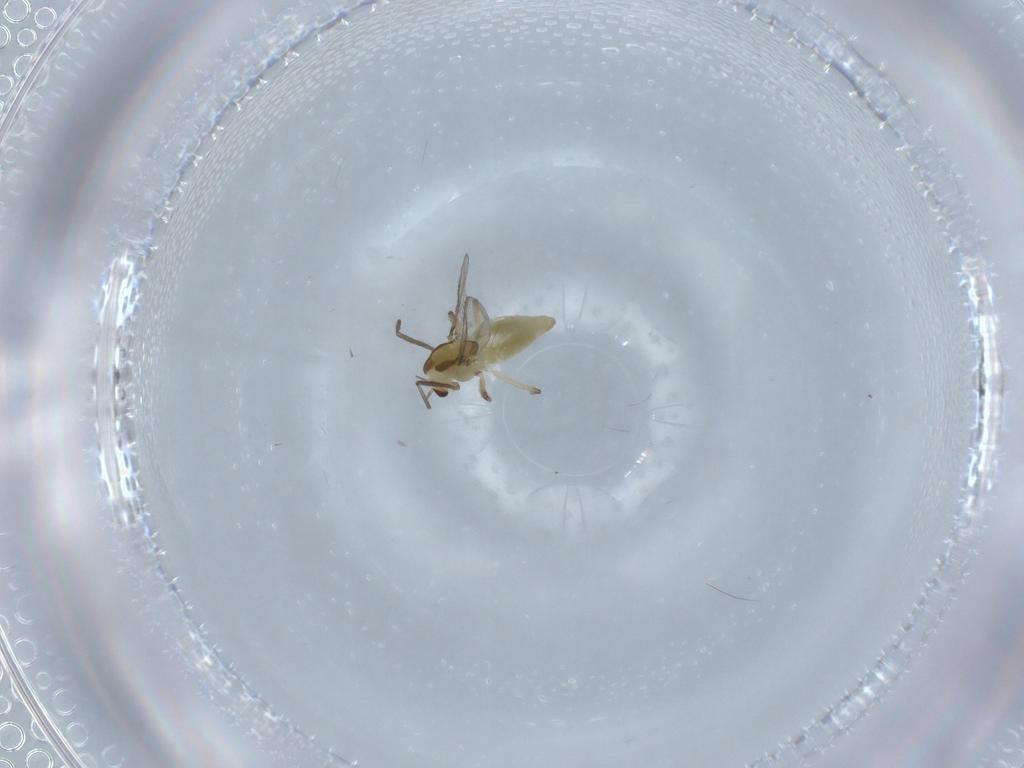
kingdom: Animalia
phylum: Arthropoda
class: Insecta
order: Diptera
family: Chironomidae
